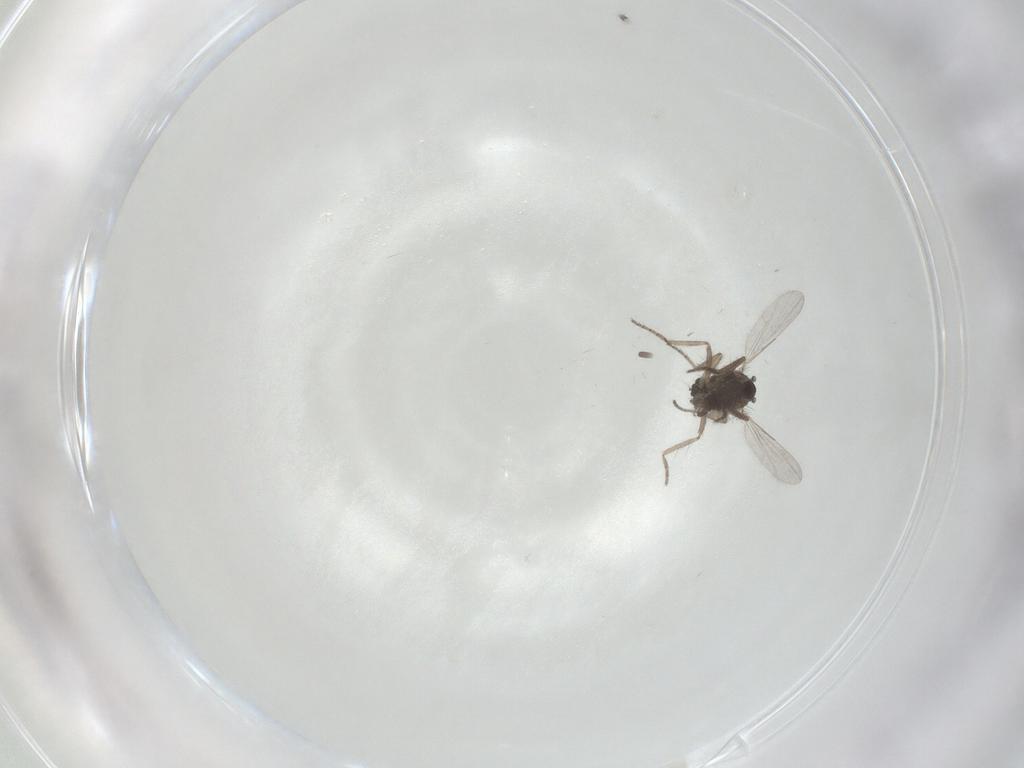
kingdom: Animalia
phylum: Arthropoda
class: Insecta
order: Diptera
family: Ceratopogonidae
